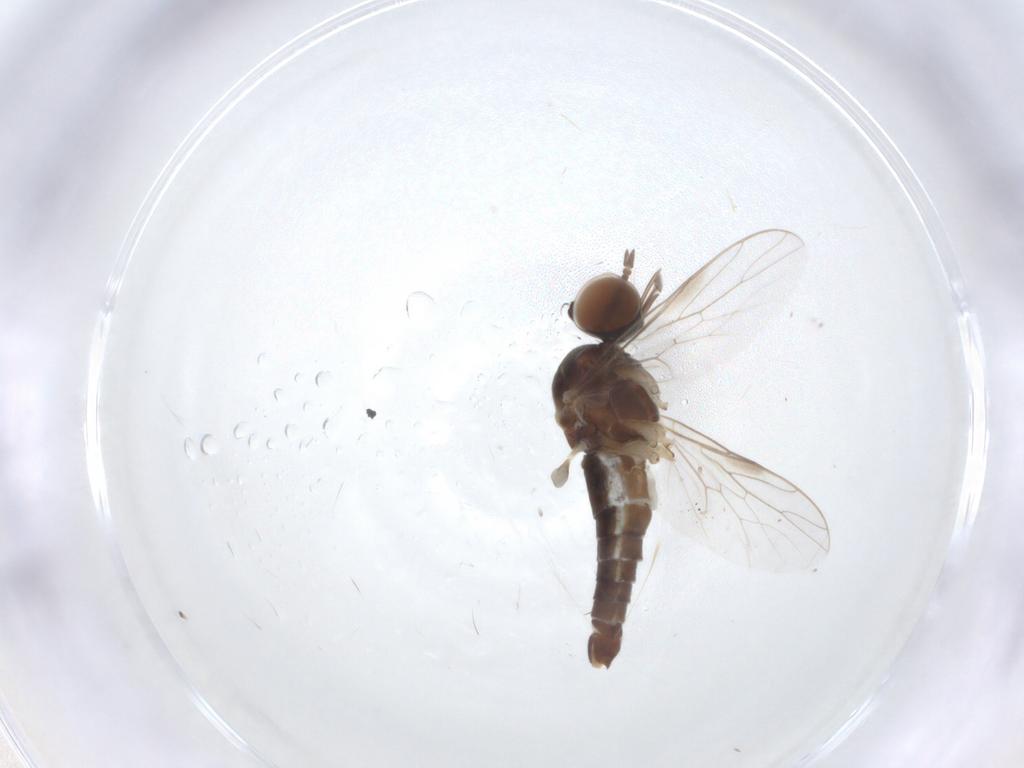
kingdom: Animalia
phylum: Arthropoda
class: Insecta
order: Diptera
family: Scenopinidae
